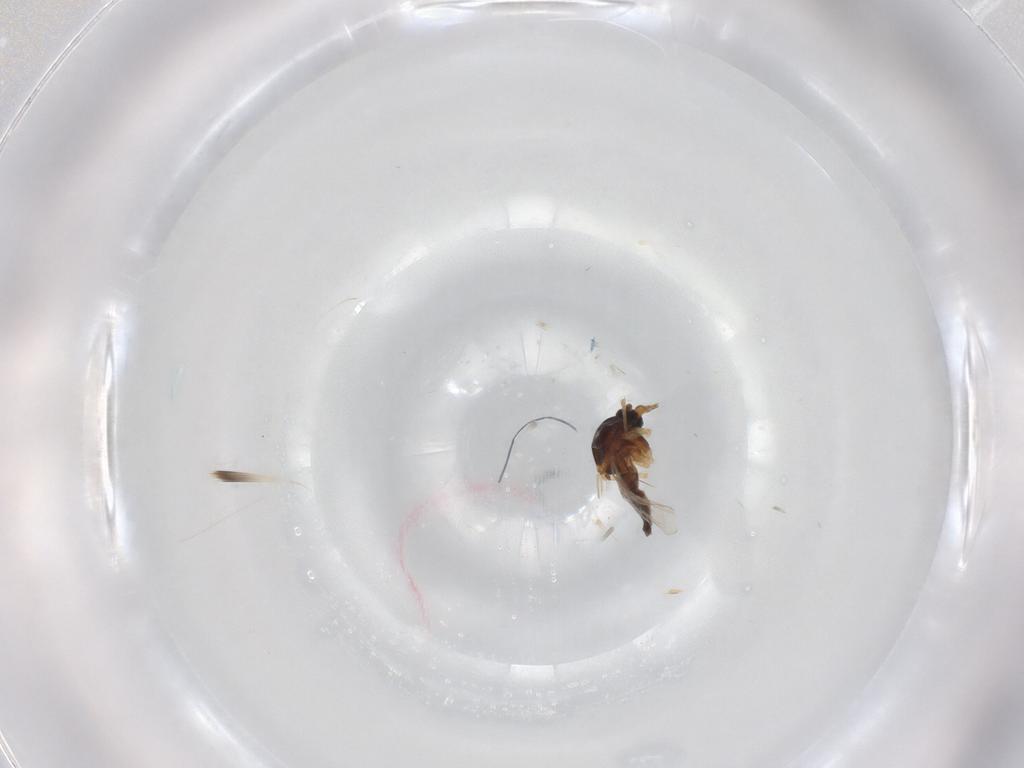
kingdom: Animalia
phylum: Arthropoda
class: Insecta
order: Diptera
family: Ceratopogonidae
